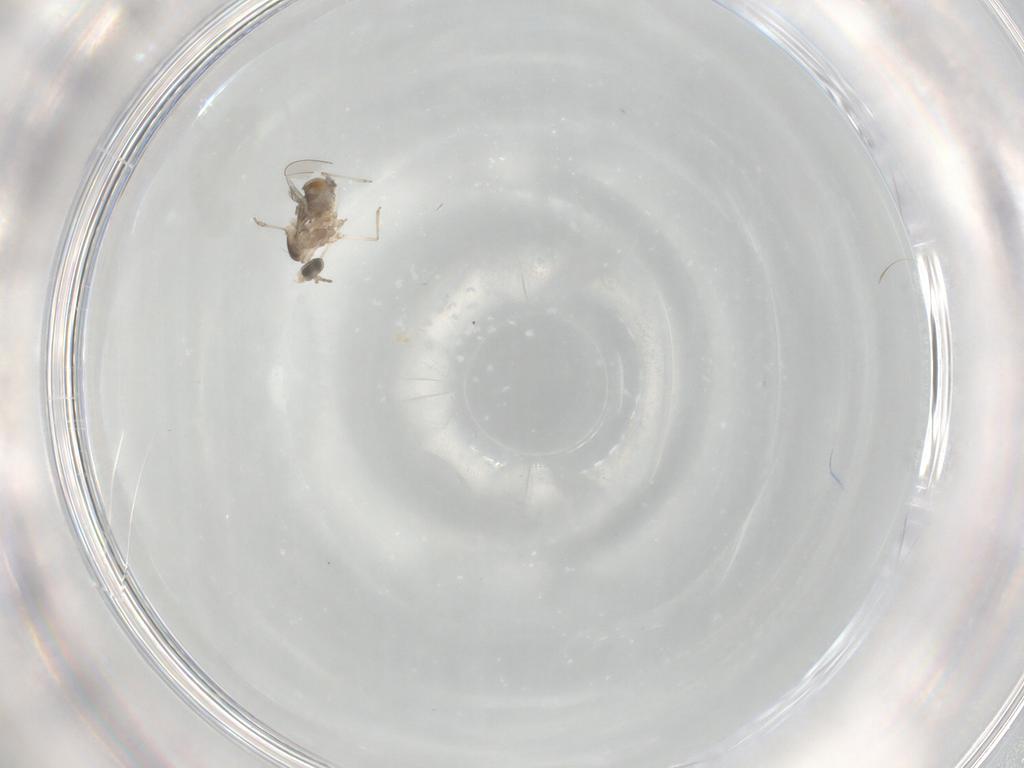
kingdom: Animalia
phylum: Arthropoda
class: Insecta
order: Diptera
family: Cecidomyiidae
